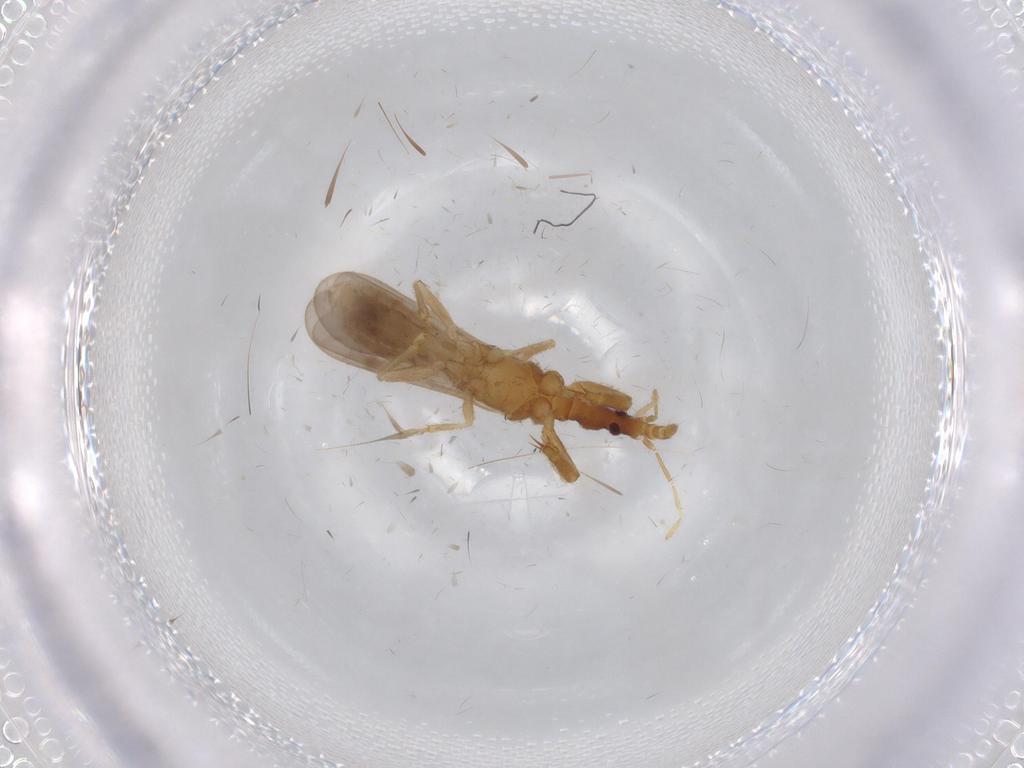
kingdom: Animalia
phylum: Arthropoda
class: Insecta
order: Hemiptera
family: Enicocephalidae
